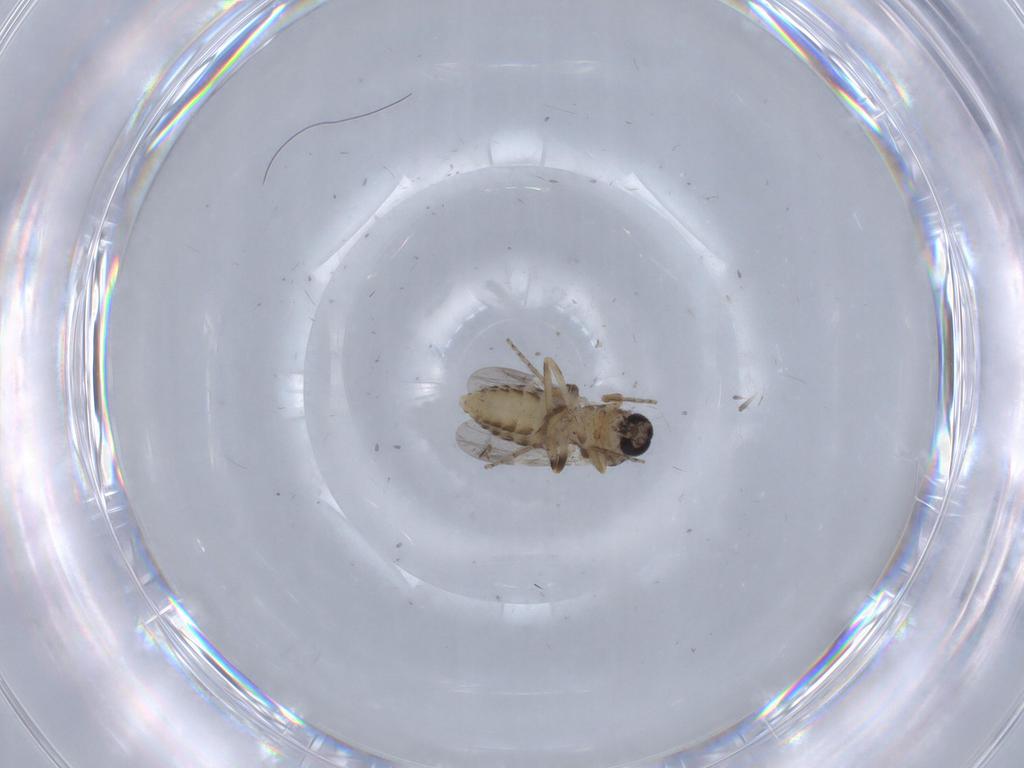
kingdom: Animalia
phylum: Arthropoda
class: Insecta
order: Diptera
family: Ceratopogonidae
